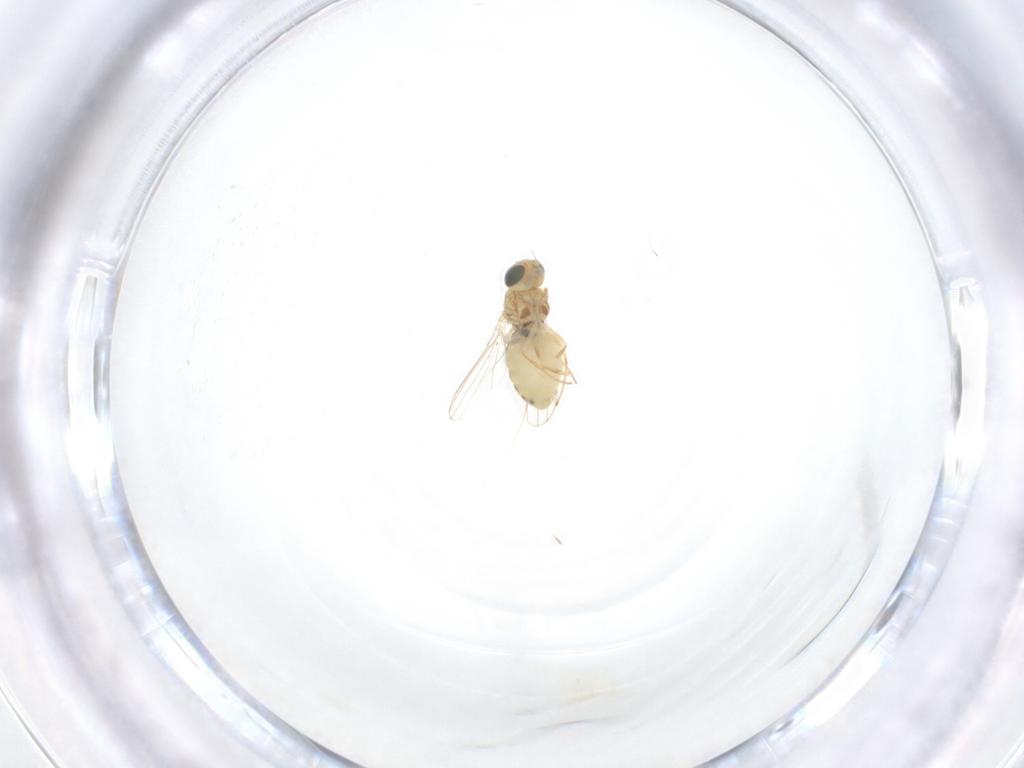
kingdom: Animalia
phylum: Arthropoda
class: Insecta
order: Diptera
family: Chyromyidae
